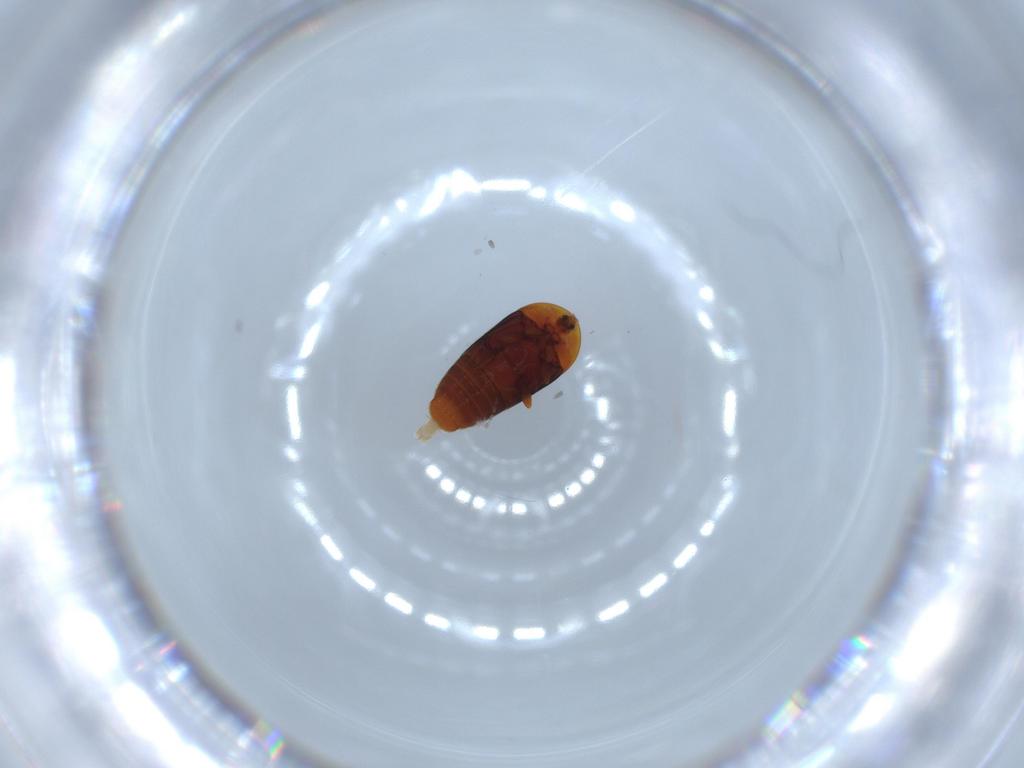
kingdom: Animalia
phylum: Arthropoda
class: Insecta
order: Coleoptera
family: Corylophidae
